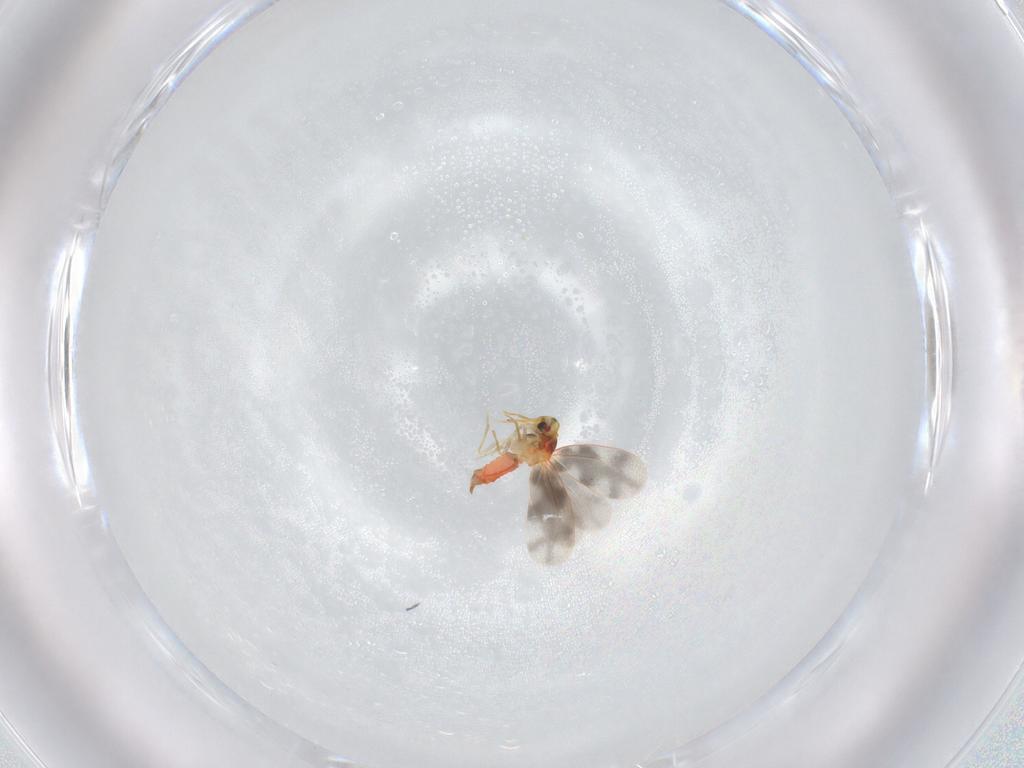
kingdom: Animalia
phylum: Arthropoda
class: Insecta
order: Hemiptera
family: Aleyrodidae
